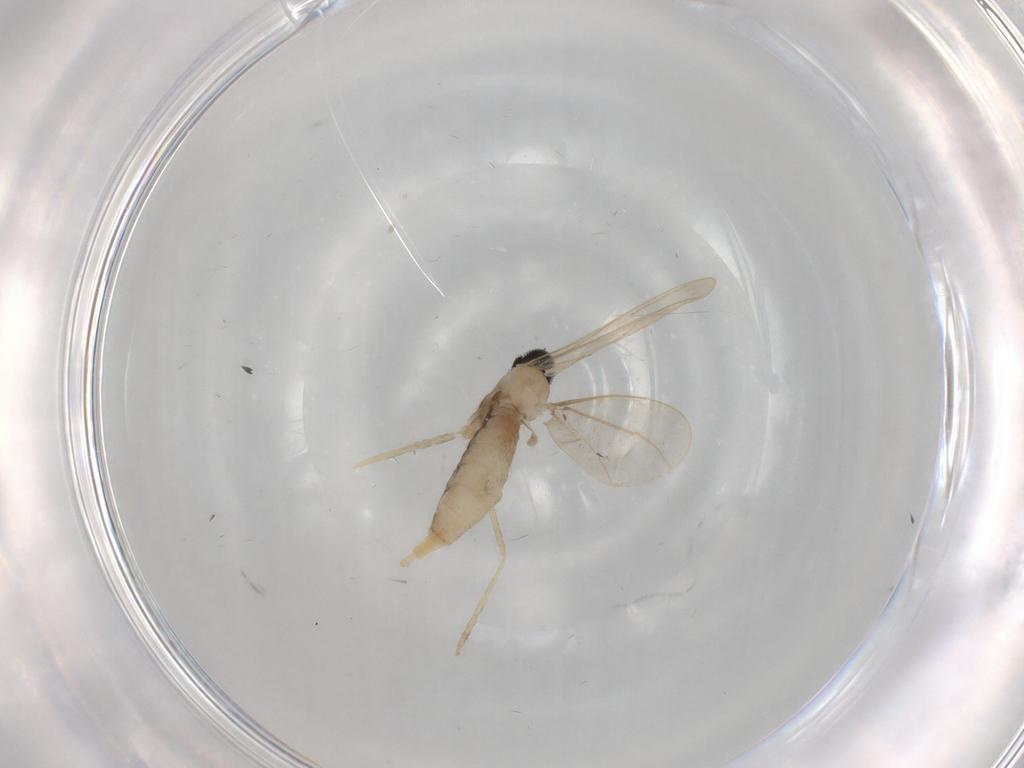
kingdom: Animalia
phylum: Arthropoda
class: Insecta
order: Diptera
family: Cecidomyiidae
